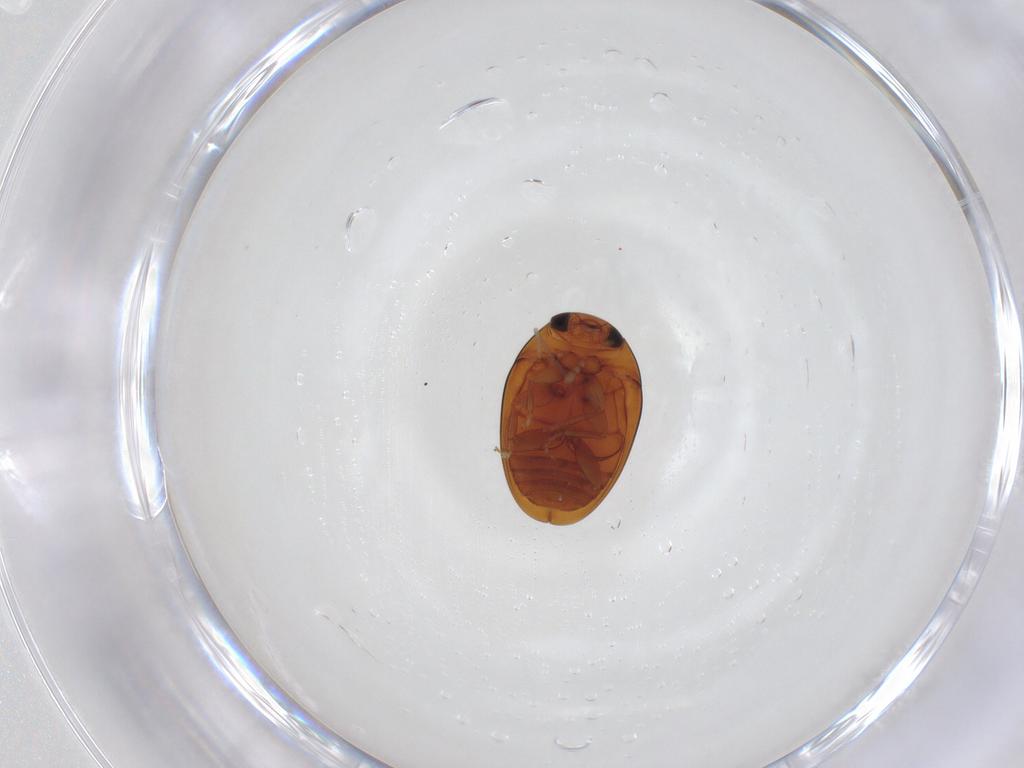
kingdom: Animalia
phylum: Arthropoda
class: Insecta
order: Coleoptera
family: Phalacridae
